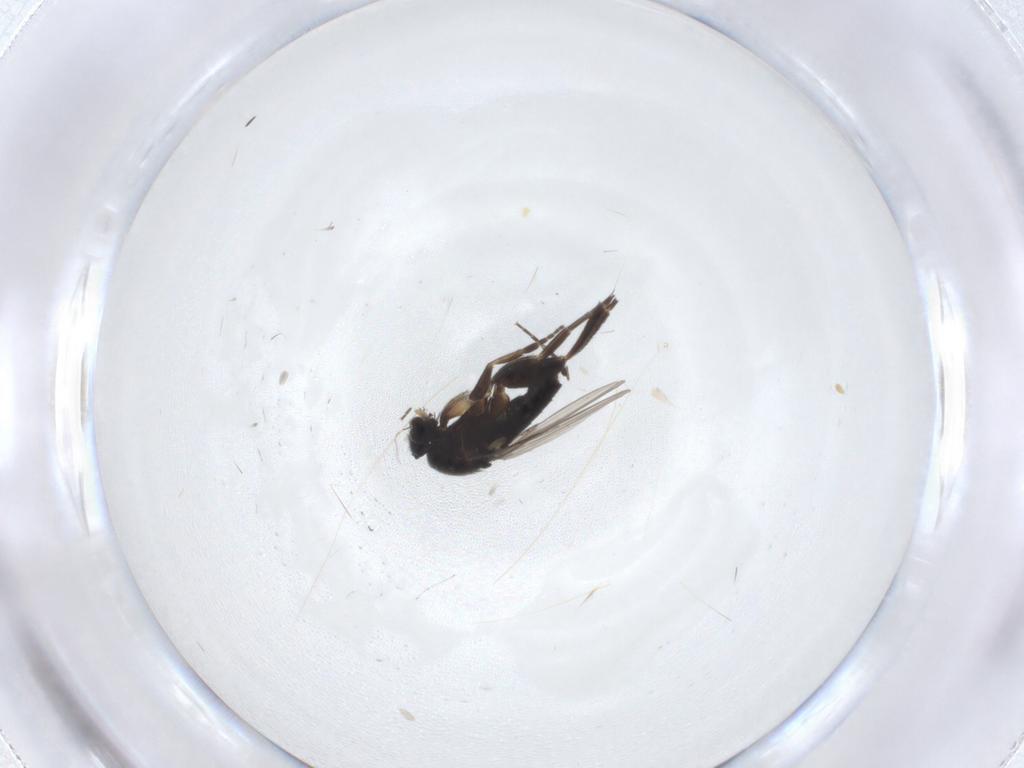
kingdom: Animalia
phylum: Arthropoda
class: Insecta
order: Diptera
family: Phoridae
